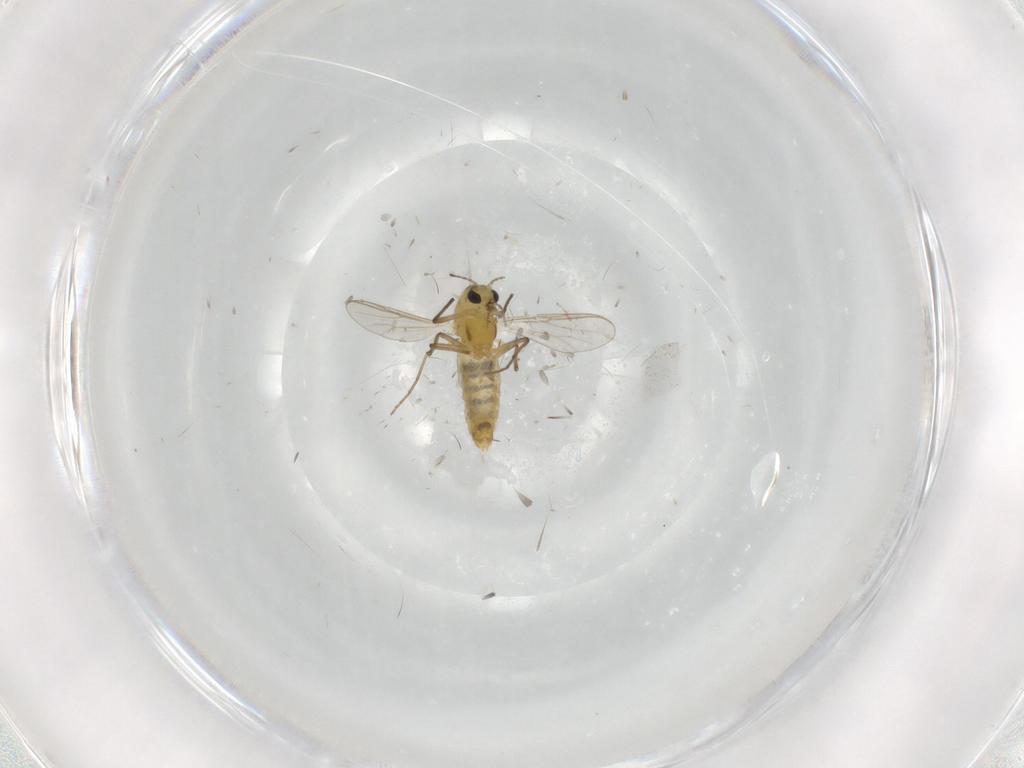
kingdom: Animalia
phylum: Arthropoda
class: Insecta
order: Diptera
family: Chironomidae
